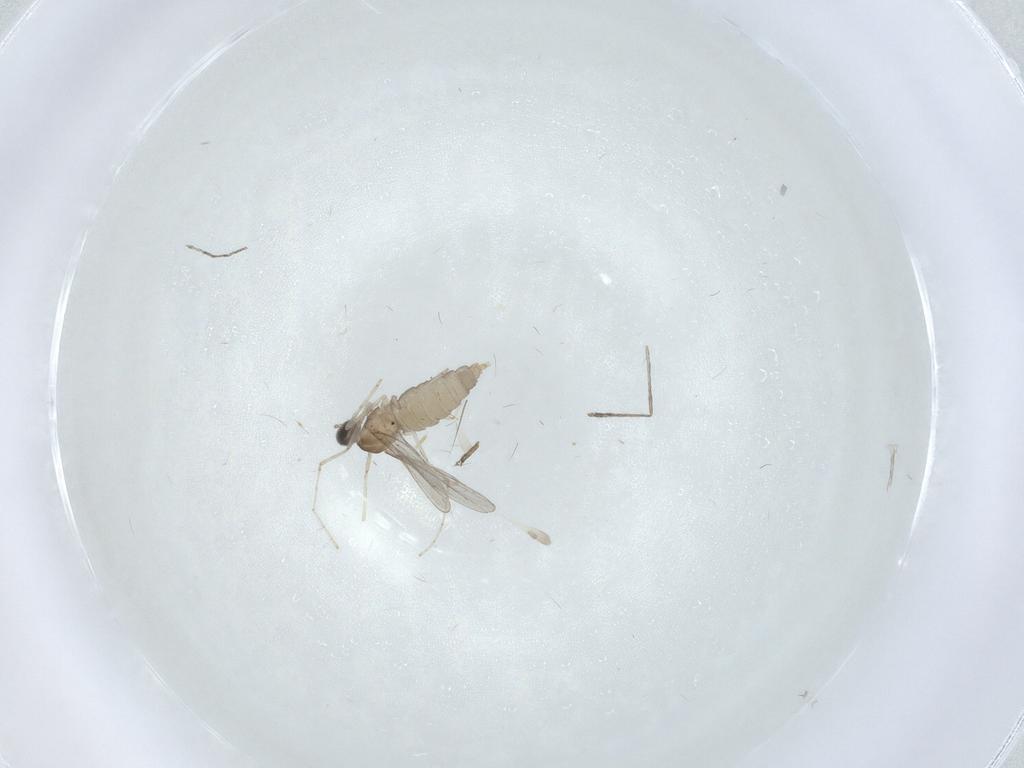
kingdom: Animalia
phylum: Arthropoda
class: Insecta
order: Diptera
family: Cecidomyiidae
